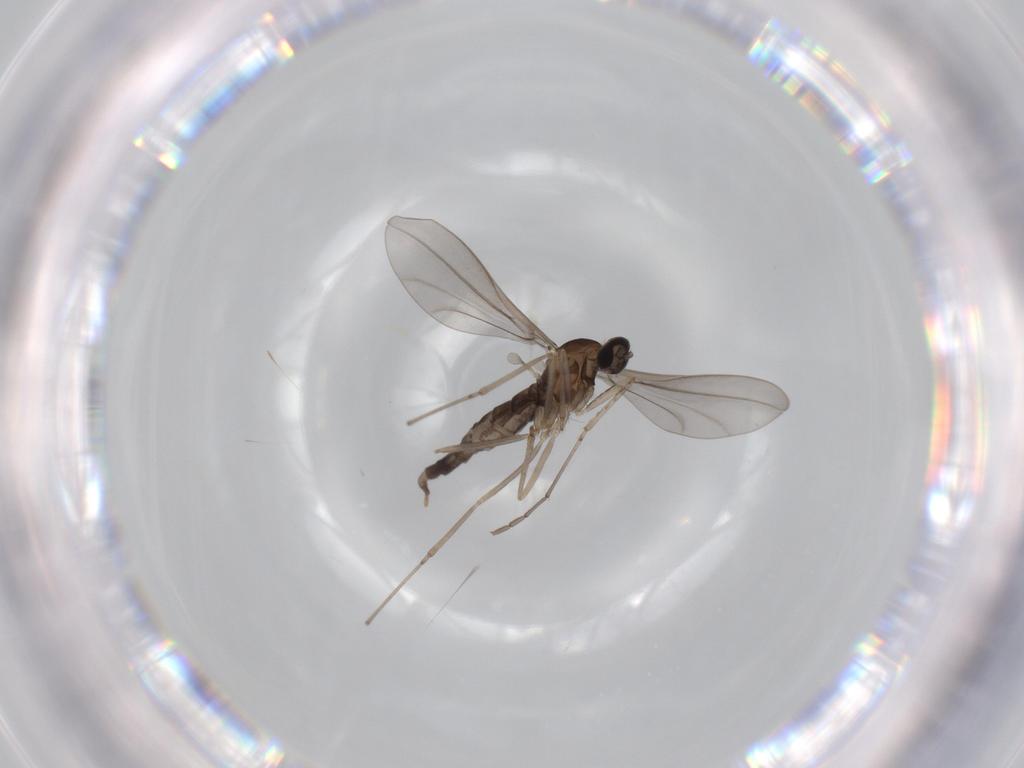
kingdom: Animalia
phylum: Arthropoda
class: Insecta
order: Diptera
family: Cecidomyiidae
